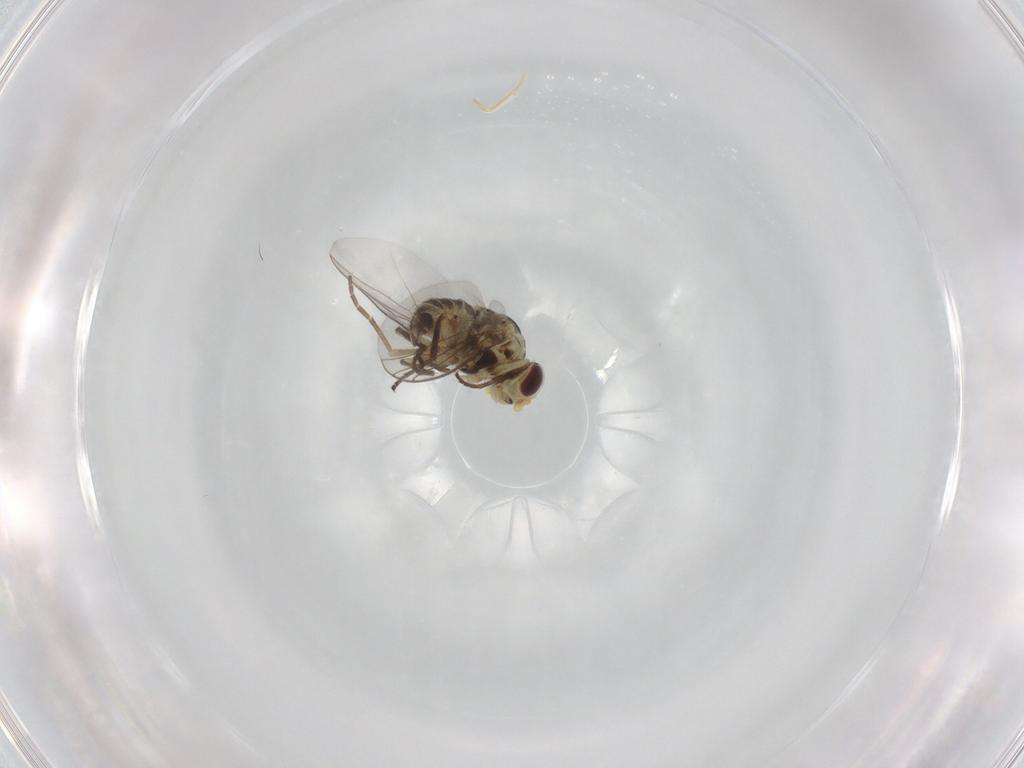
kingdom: Animalia
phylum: Arthropoda
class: Insecta
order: Diptera
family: Agromyzidae
